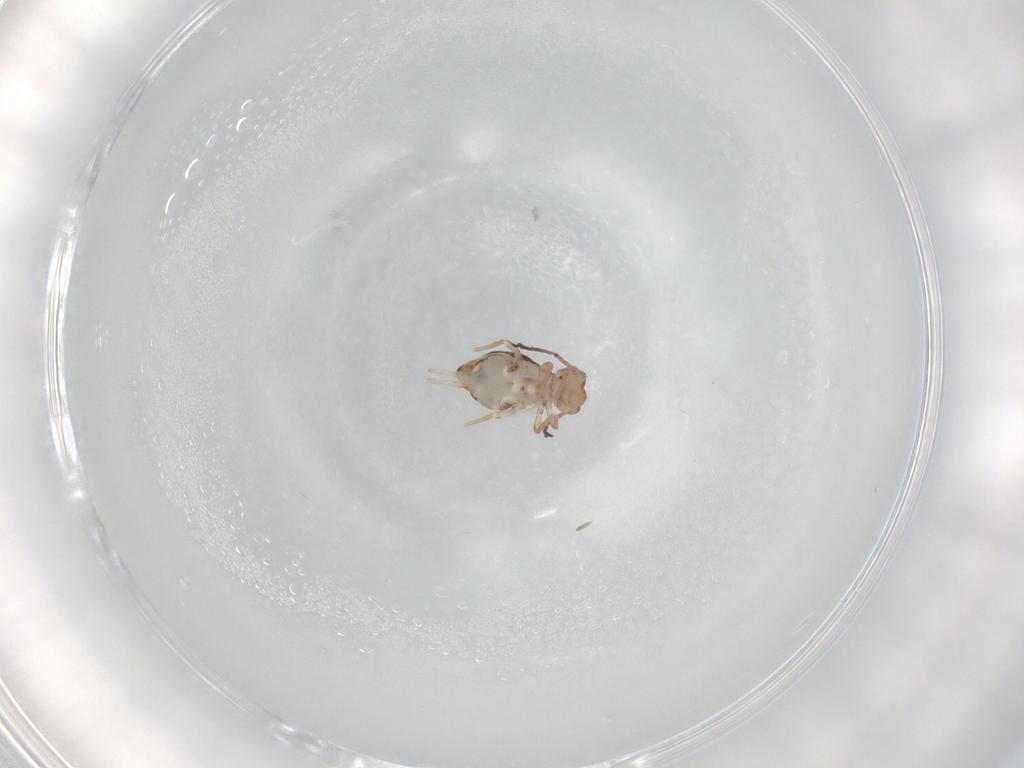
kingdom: Animalia
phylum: Arthropoda
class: Collembola
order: Symphypleona
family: Dicyrtomidae
